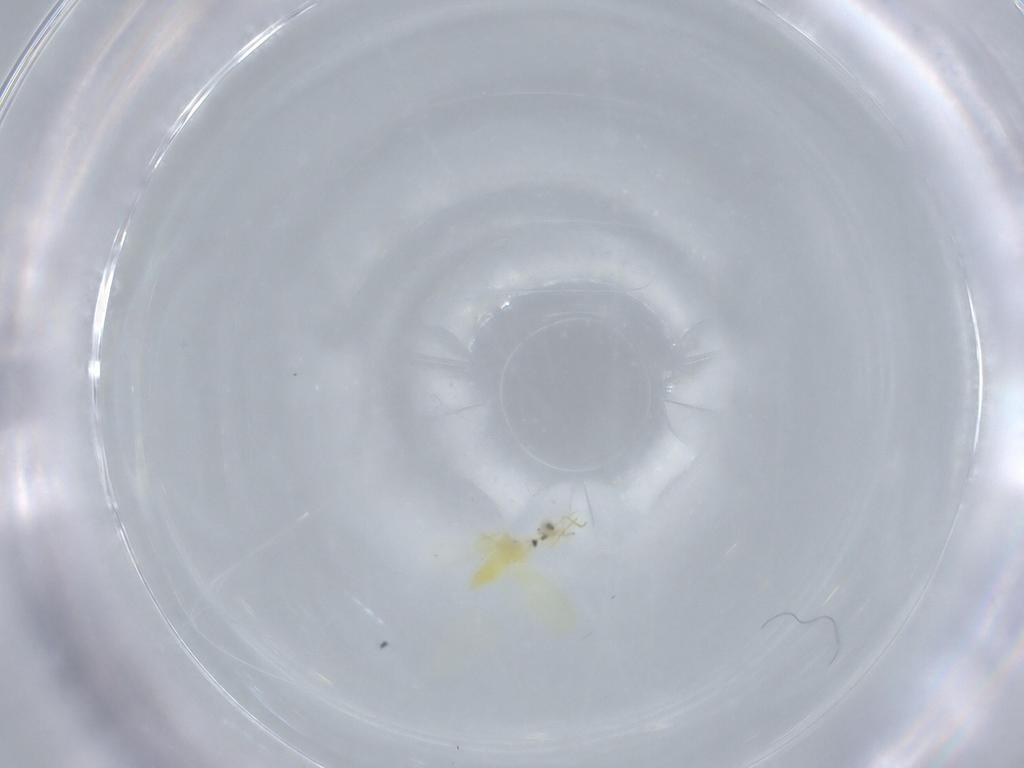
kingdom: Animalia
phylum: Arthropoda
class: Insecta
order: Hemiptera
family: Aleyrodidae
